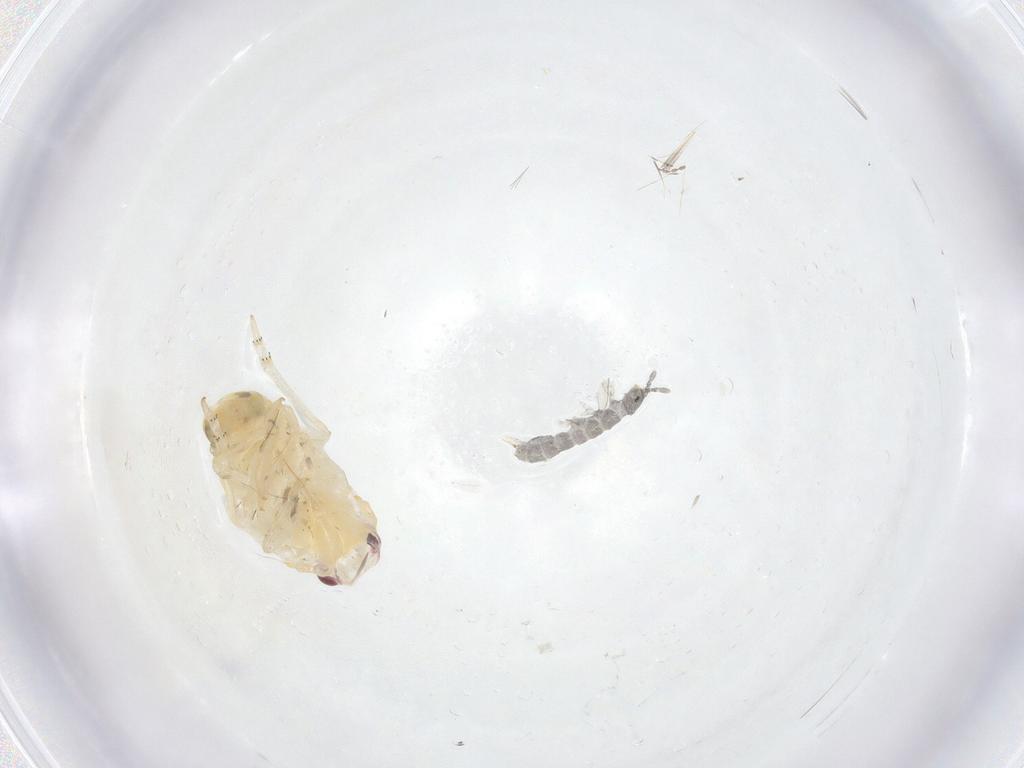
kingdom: Animalia
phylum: Arthropoda
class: Insecta
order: Hemiptera
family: Flatidae
